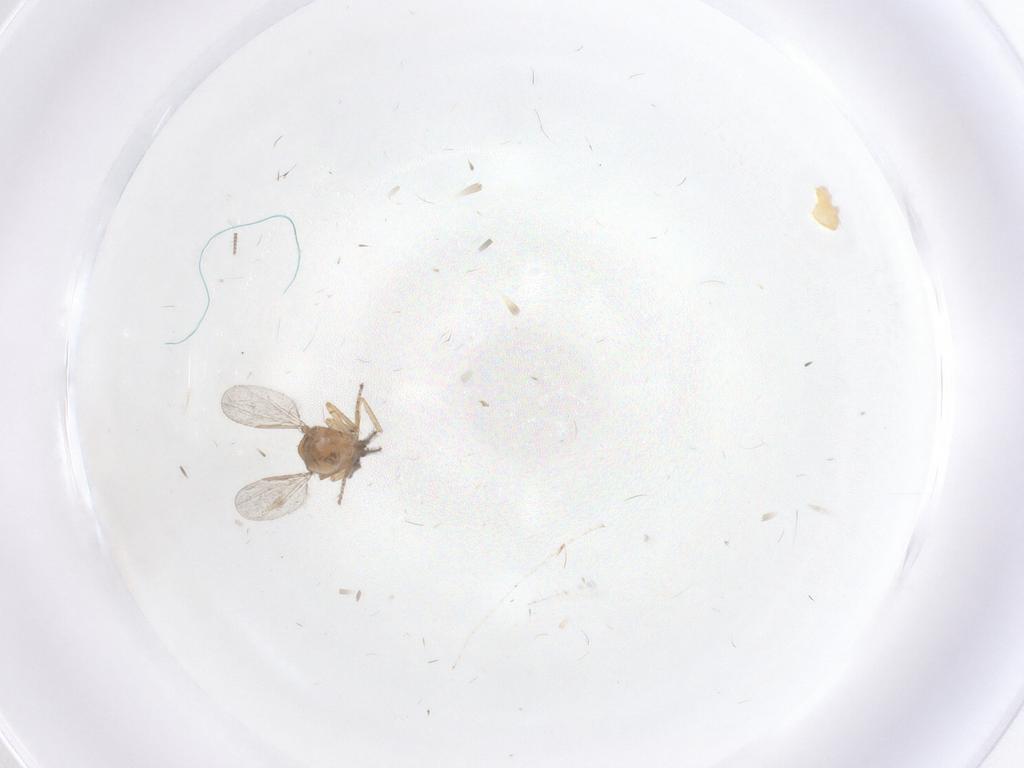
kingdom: Animalia
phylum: Arthropoda
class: Insecta
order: Diptera
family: Ceratopogonidae
